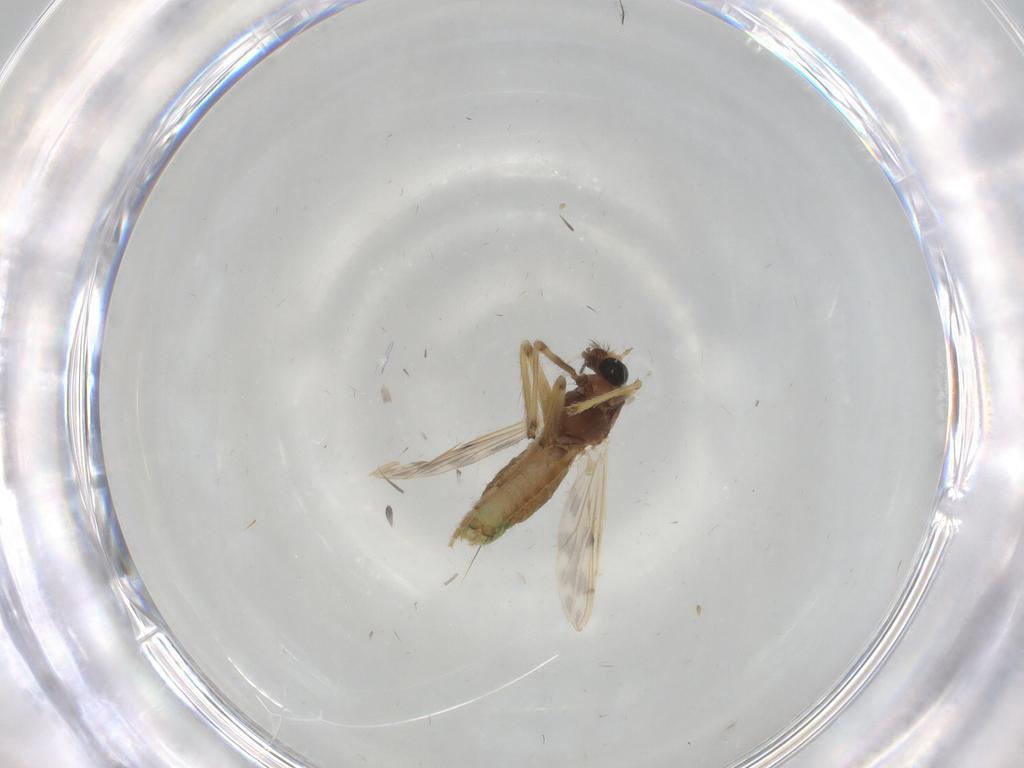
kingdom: Animalia
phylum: Arthropoda
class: Insecta
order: Diptera
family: Chironomidae
